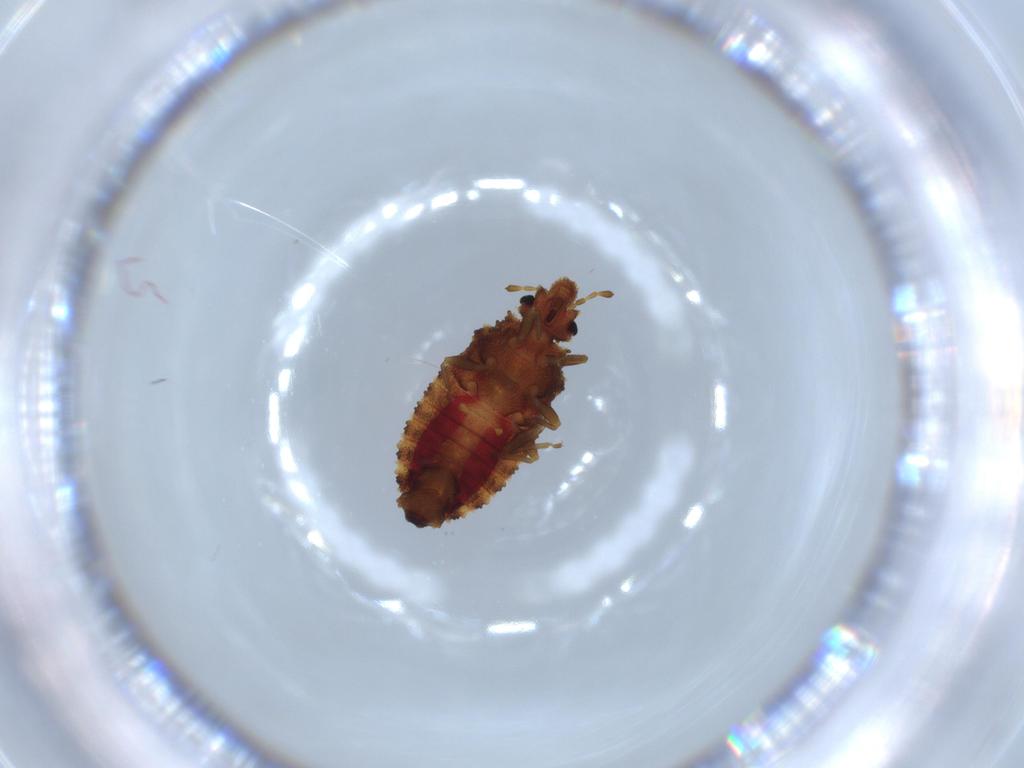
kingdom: Animalia
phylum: Arthropoda
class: Insecta
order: Hemiptera
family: Aradidae
